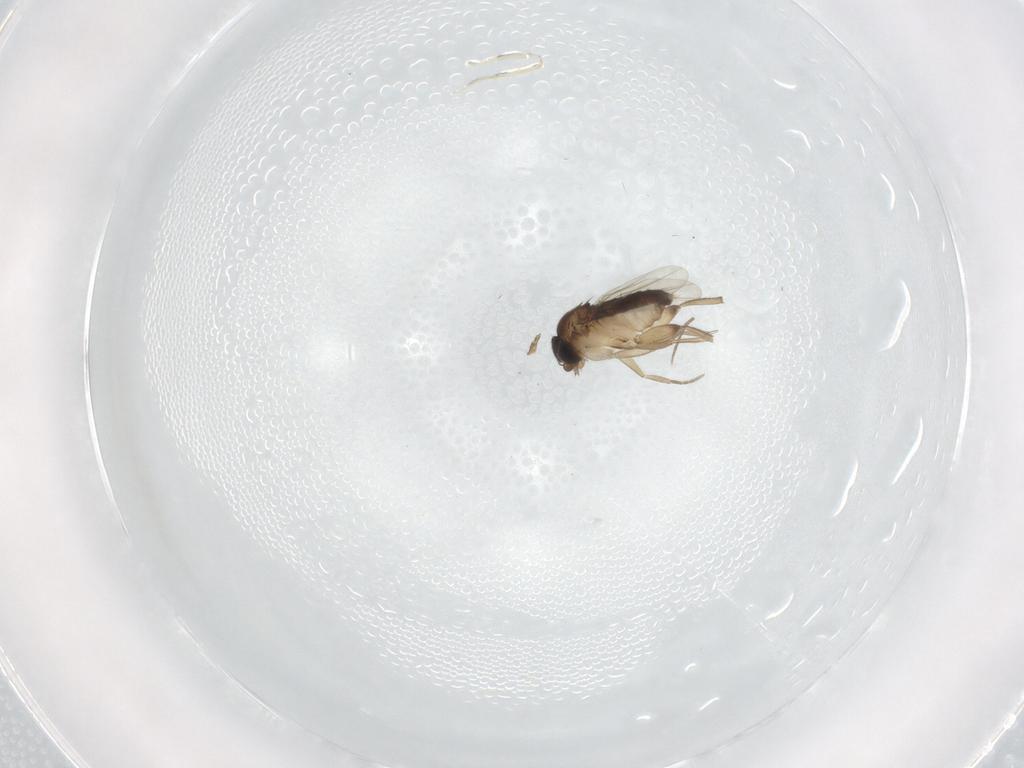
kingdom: Animalia
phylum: Arthropoda
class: Insecta
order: Diptera
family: Phoridae
